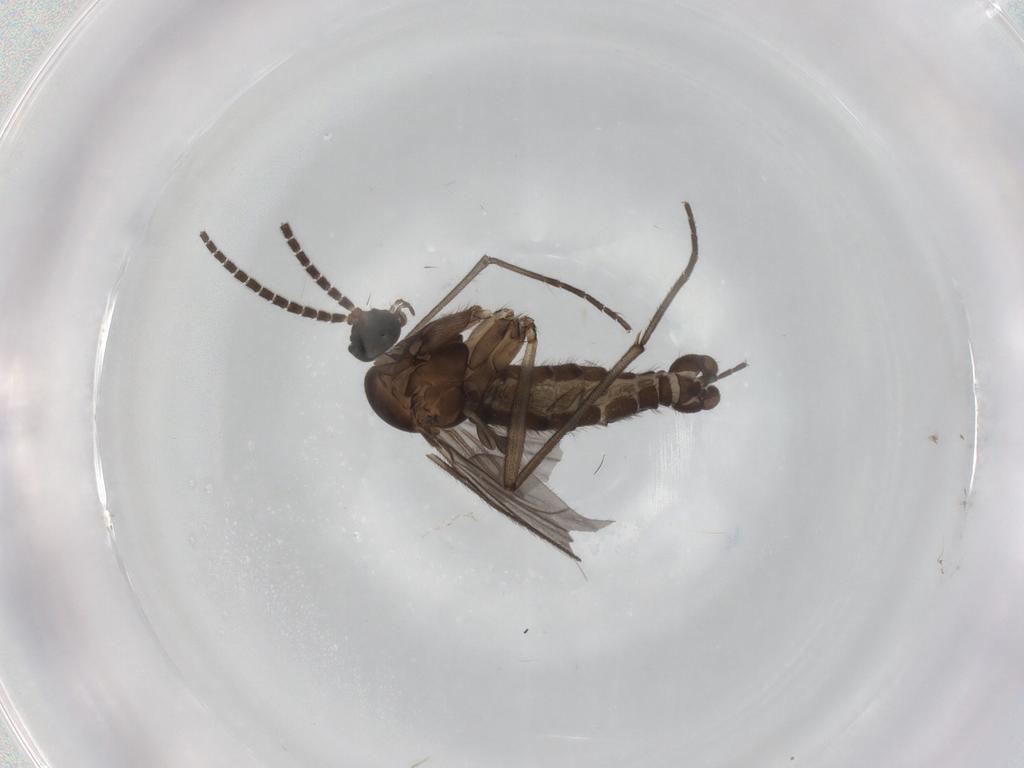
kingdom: Animalia
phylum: Arthropoda
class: Insecta
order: Diptera
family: Sciaridae
